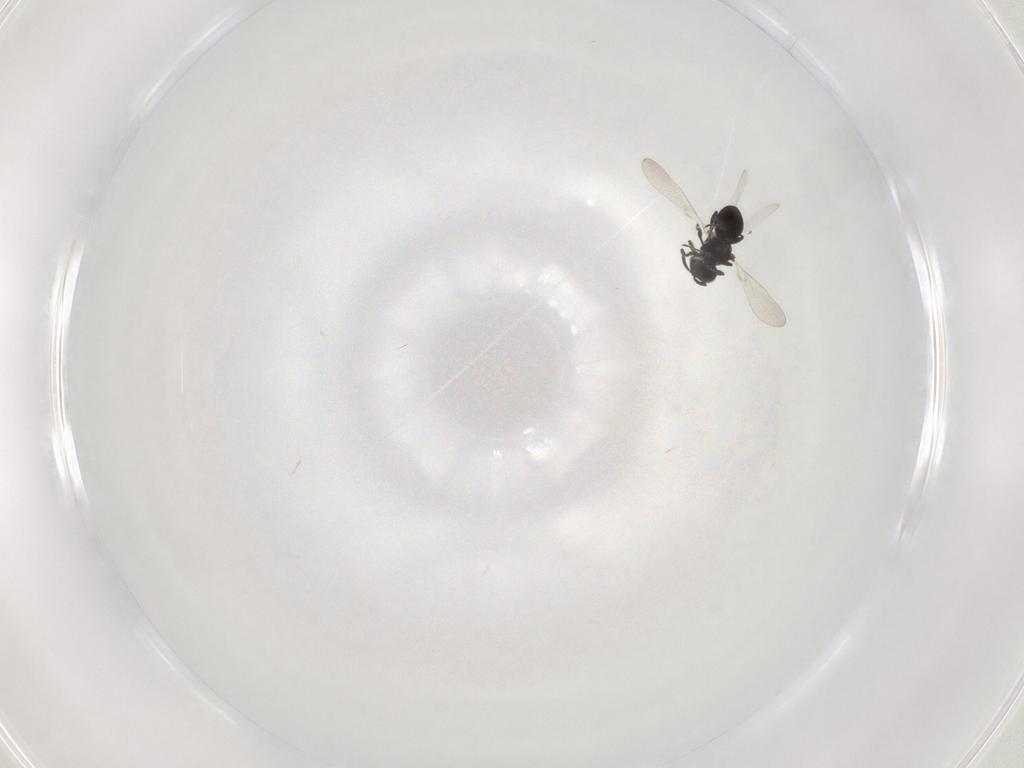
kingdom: Animalia
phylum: Arthropoda
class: Insecta
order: Hymenoptera
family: Platygastridae
